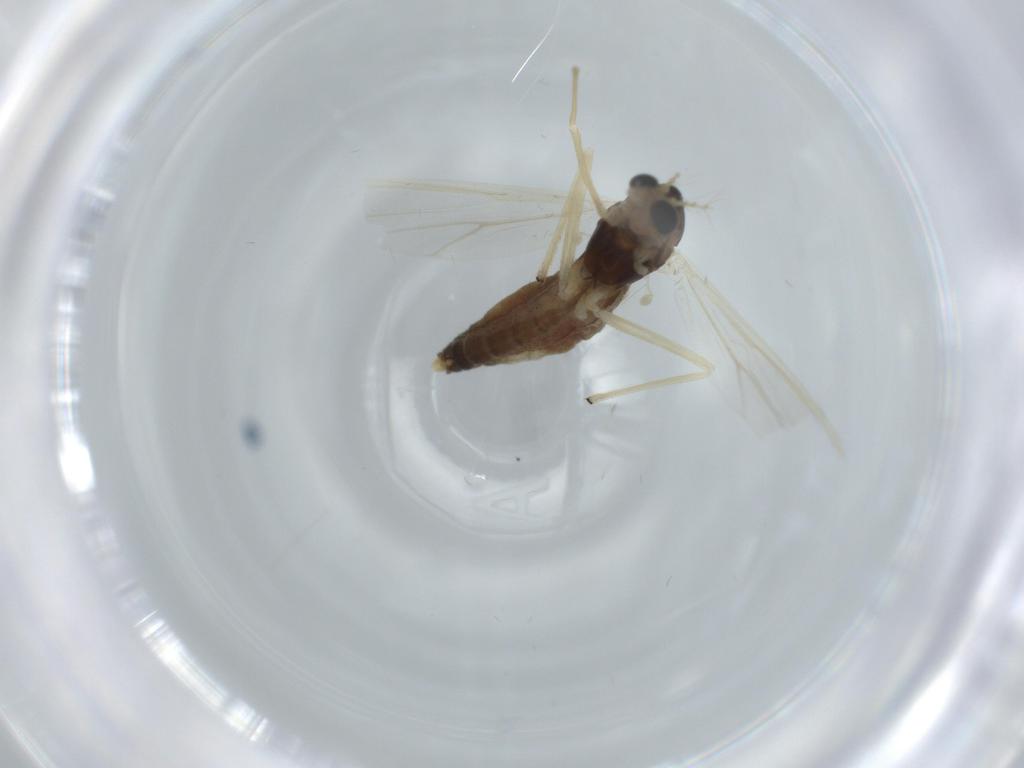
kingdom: Animalia
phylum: Arthropoda
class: Insecta
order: Diptera
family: Chironomidae
